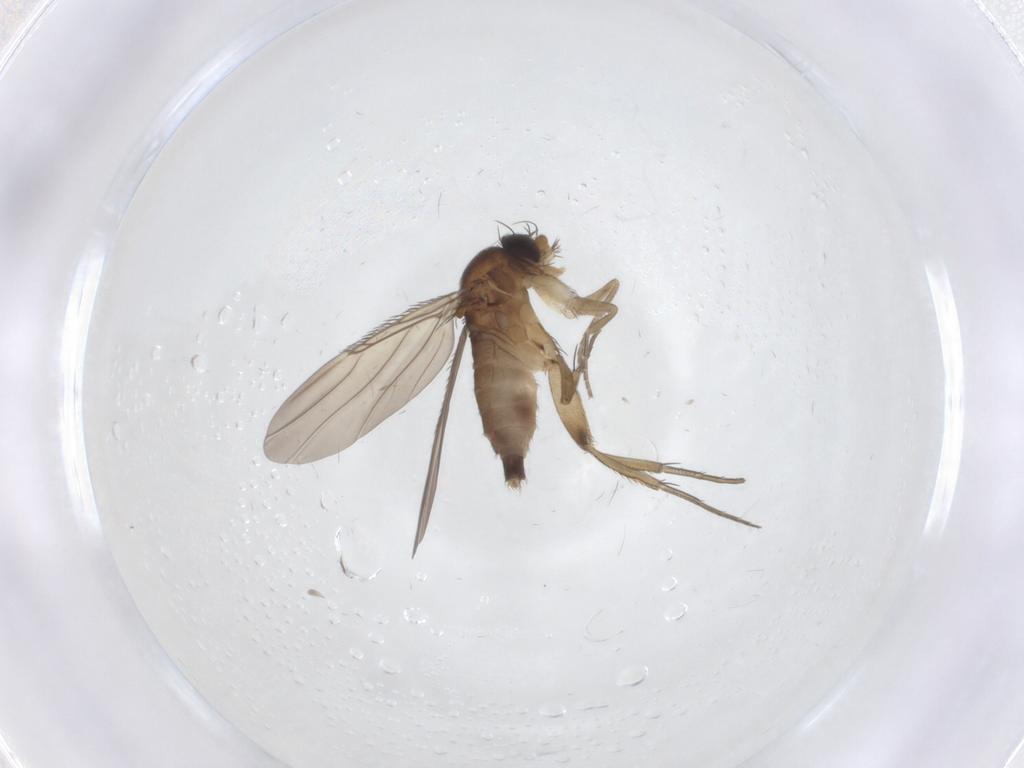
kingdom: Animalia
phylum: Arthropoda
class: Insecta
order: Diptera
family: Phoridae
